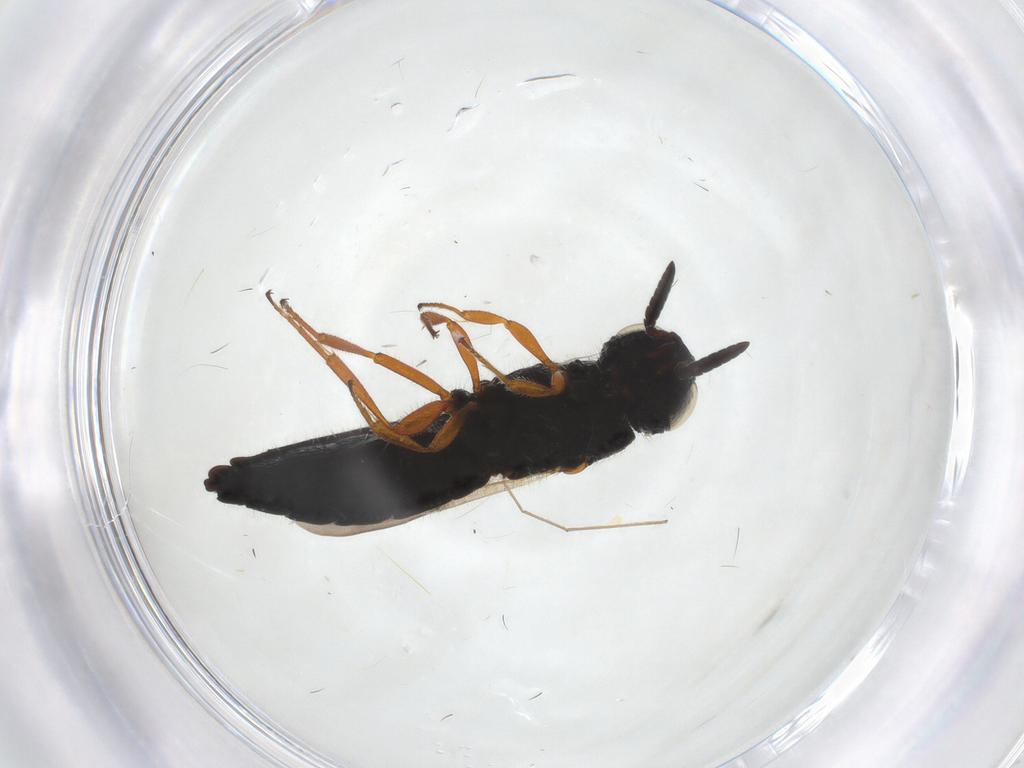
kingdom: Animalia
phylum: Arthropoda
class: Insecta
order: Hymenoptera
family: Scelionidae
